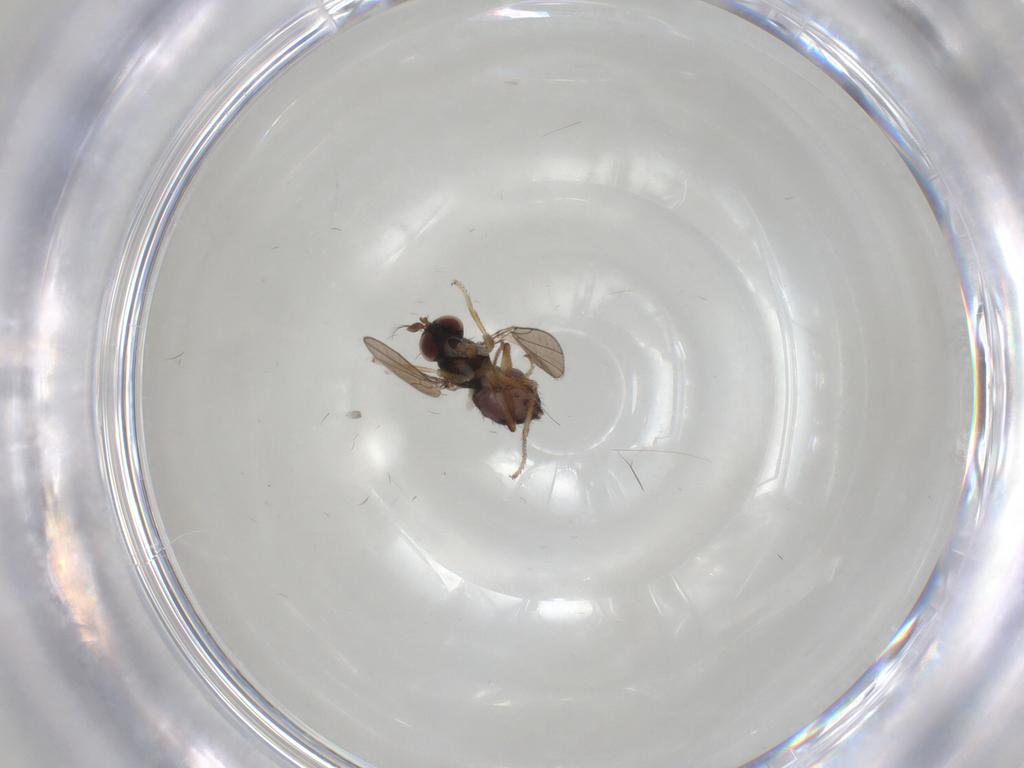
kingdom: Animalia
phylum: Arthropoda
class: Insecta
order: Diptera
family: Ephydridae
